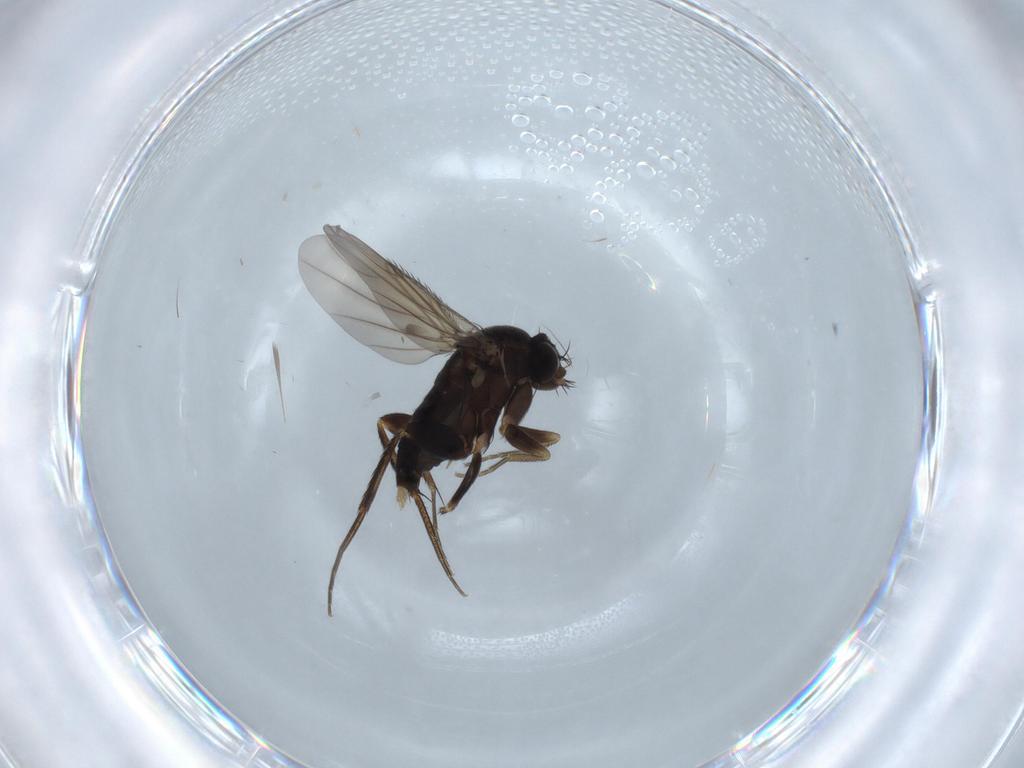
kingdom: Animalia
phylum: Arthropoda
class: Insecta
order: Diptera
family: Phoridae
